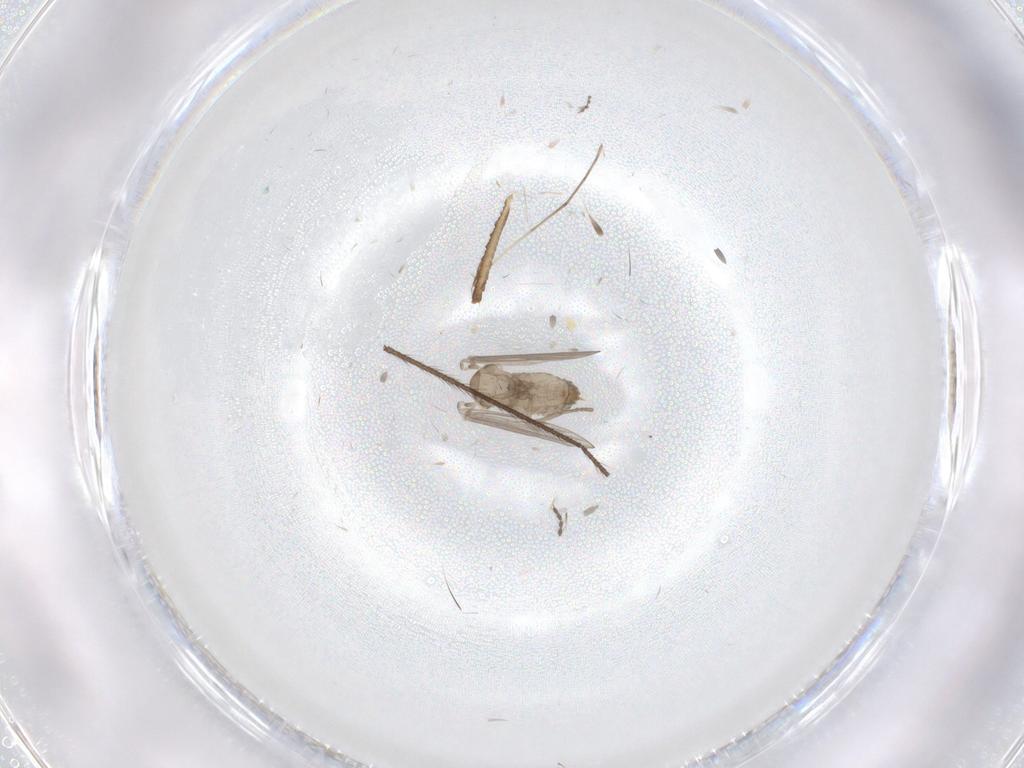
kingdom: Animalia
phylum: Arthropoda
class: Insecta
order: Diptera
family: Psychodidae
